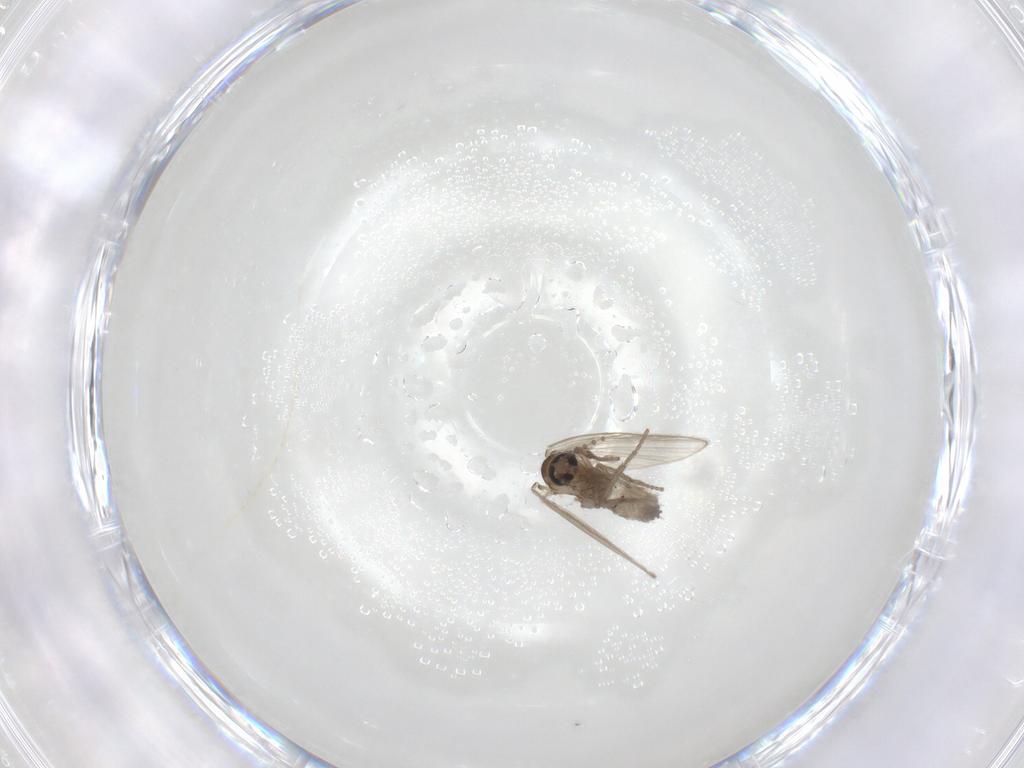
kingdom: Animalia
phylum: Arthropoda
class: Insecta
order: Diptera
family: Psychodidae
